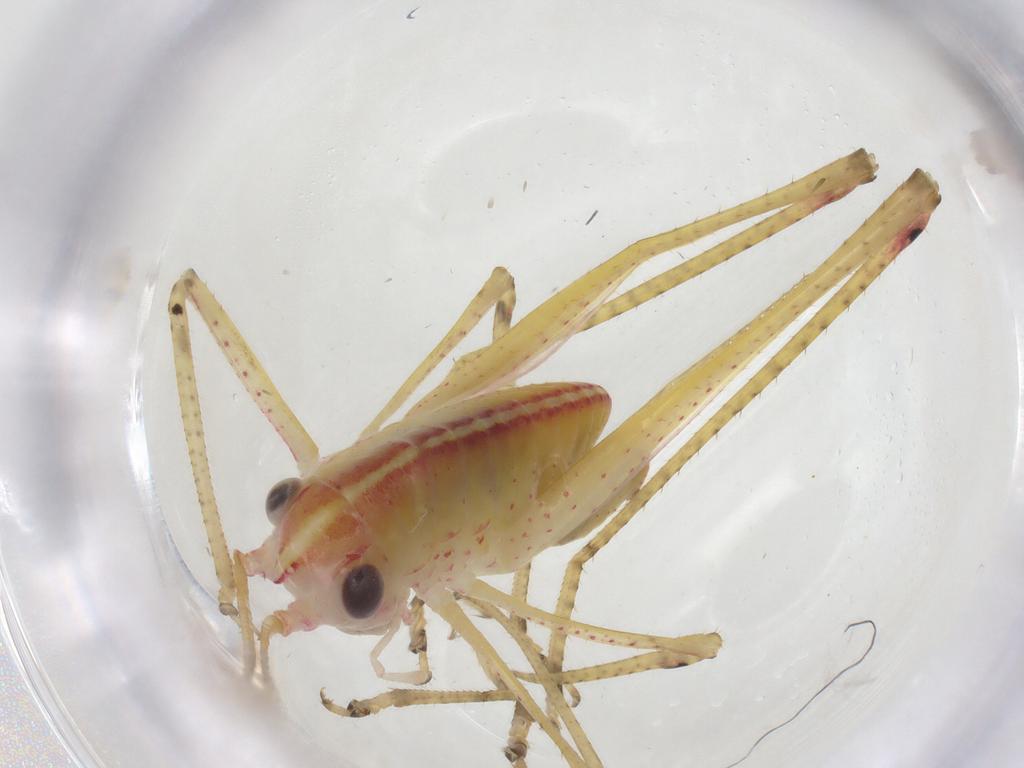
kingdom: Animalia
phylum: Arthropoda
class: Insecta
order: Orthoptera
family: Tettigoniidae
